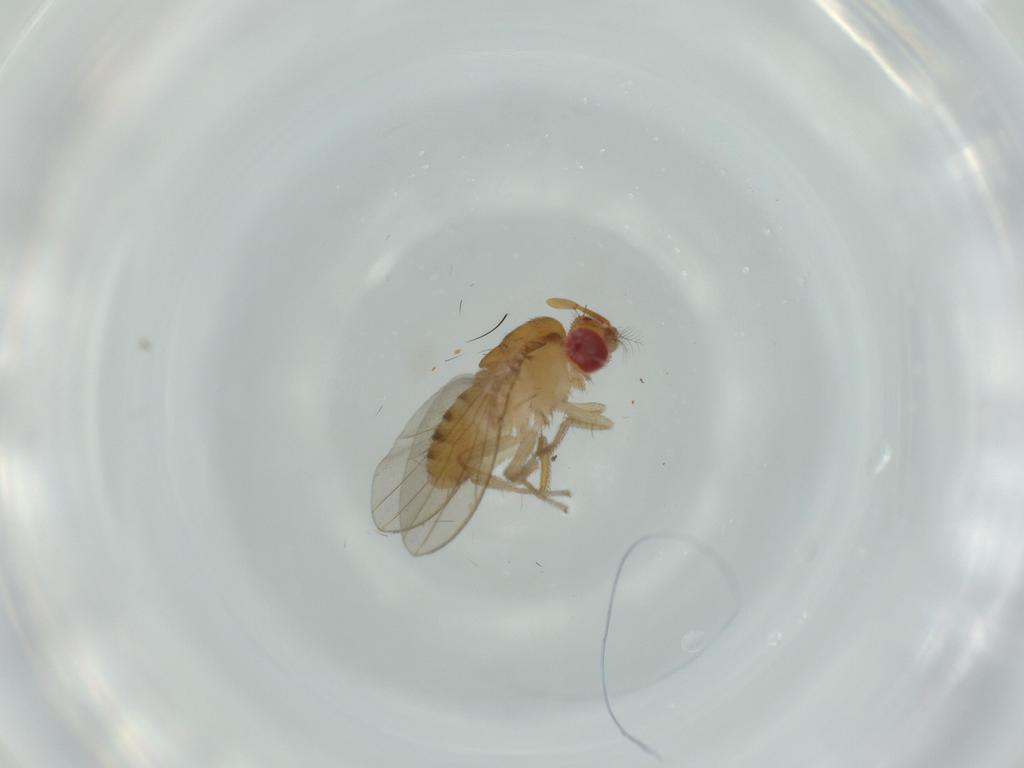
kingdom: Animalia
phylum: Arthropoda
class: Insecta
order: Diptera
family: Drosophilidae
